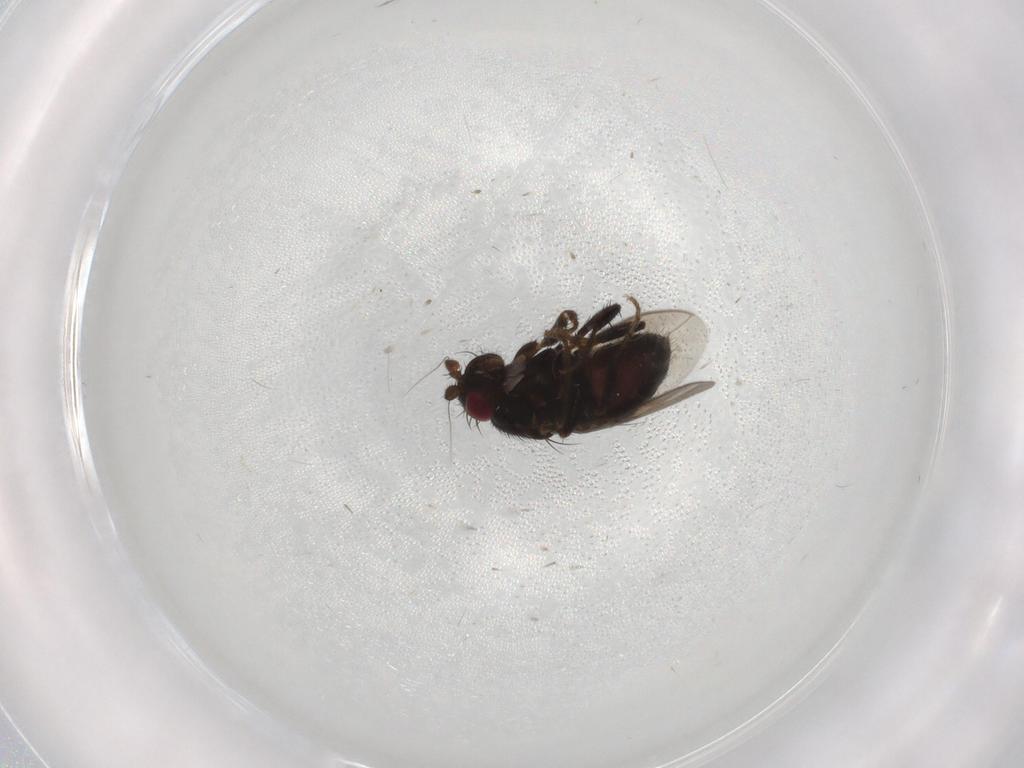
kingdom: Animalia
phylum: Arthropoda
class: Insecta
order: Diptera
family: Sphaeroceridae
